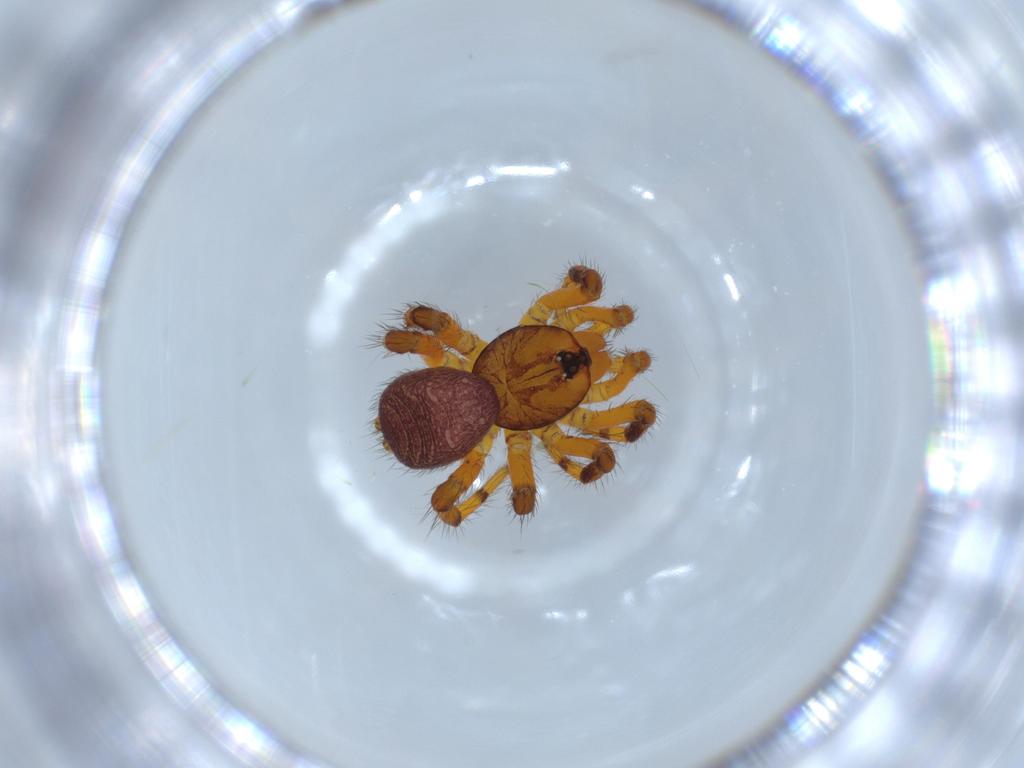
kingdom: Animalia
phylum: Arthropoda
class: Arachnida
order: Araneae
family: Theraphosidae
